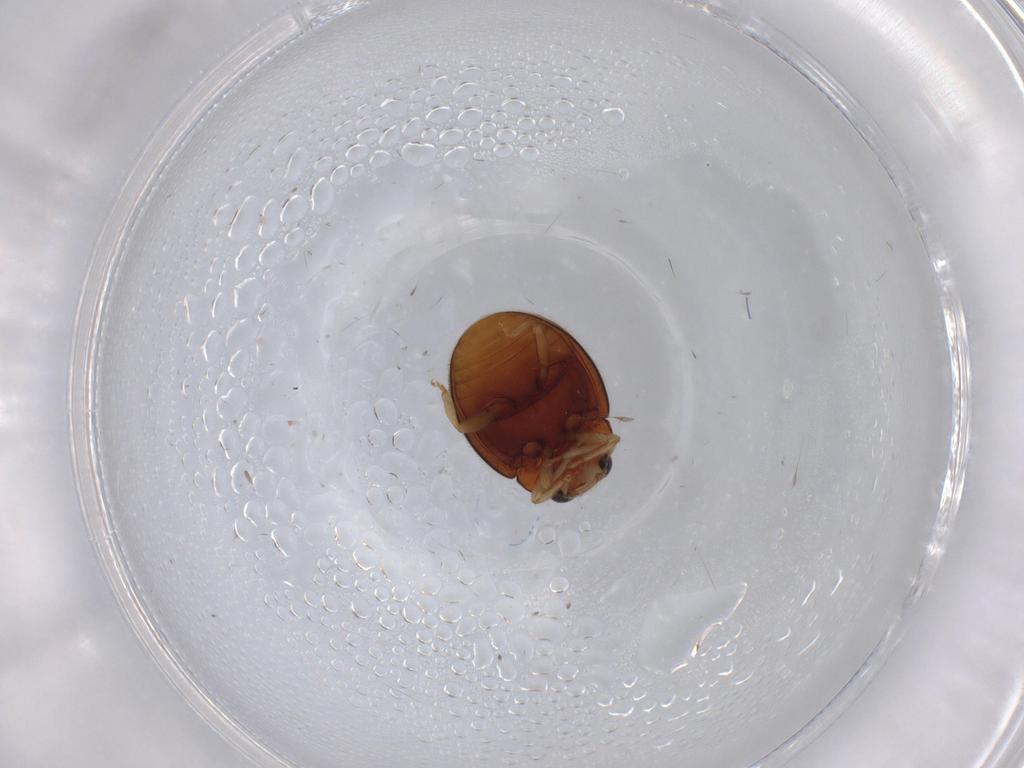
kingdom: Animalia
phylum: Arthropoda
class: Insecta
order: Coleoptera
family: Coccinellidae
